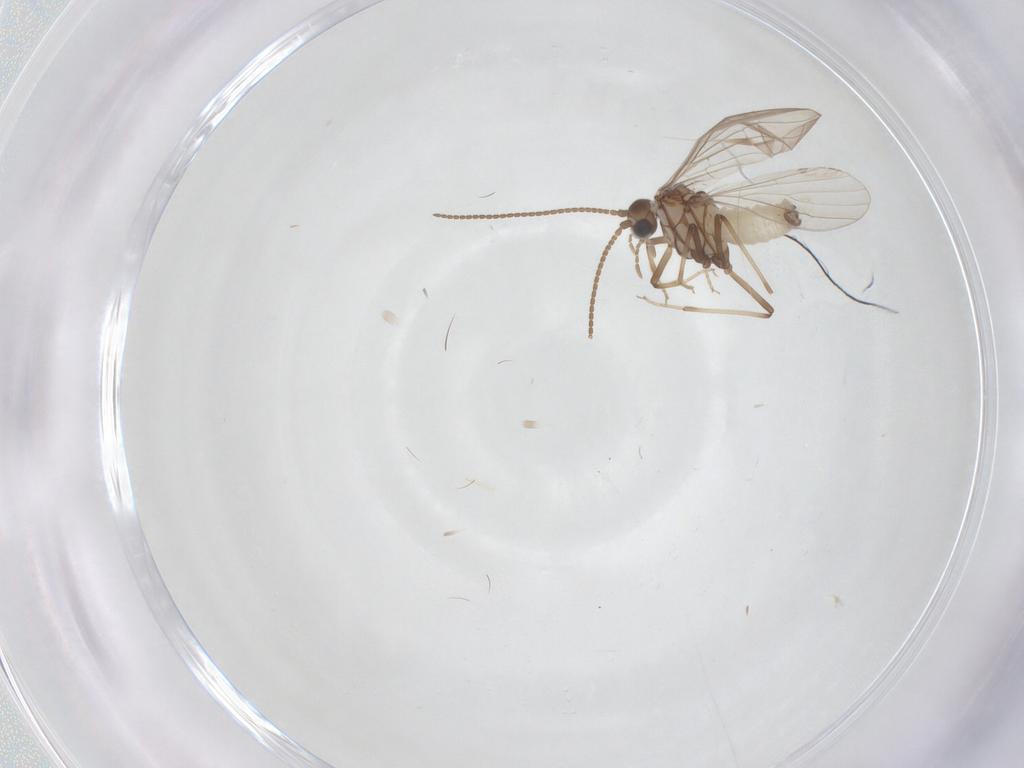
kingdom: Animalia
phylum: Arthropoda
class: Insecta
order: Neuroptera
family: Coniopterygidae
